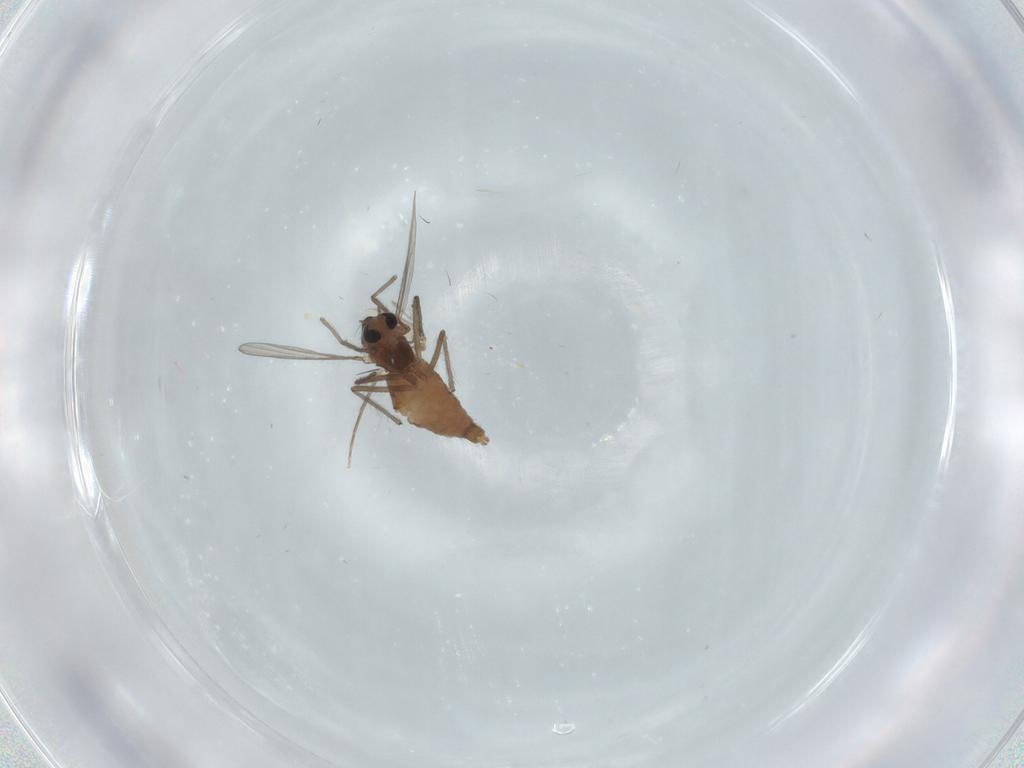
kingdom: Animalia
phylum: Arthropoda
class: Insecta
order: Diptera
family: Chironomidae
